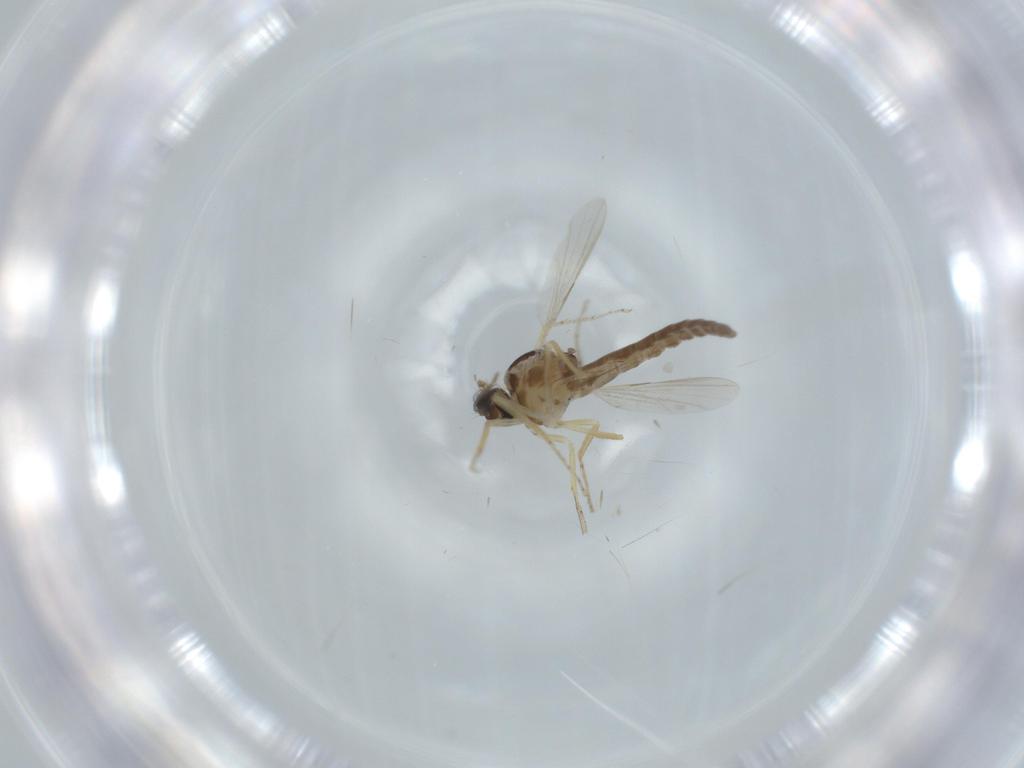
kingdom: Animalia
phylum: Arthropoda
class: Insecta
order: Diptera
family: Ceratopogonidae
